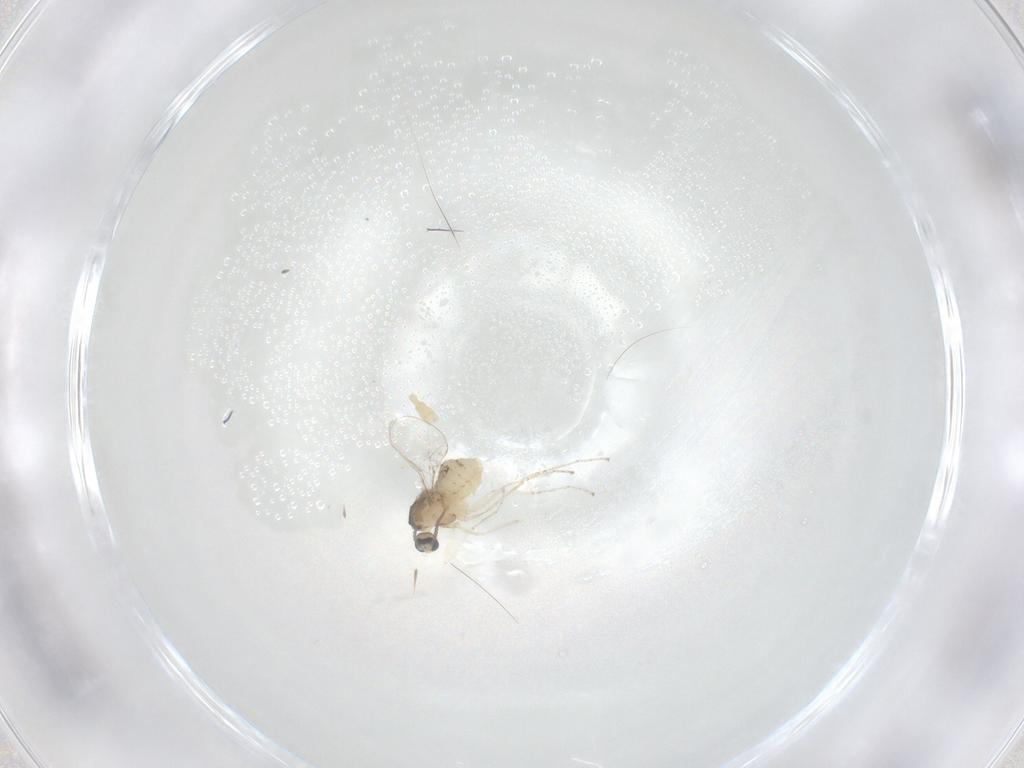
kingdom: Animalia
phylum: Arthropoda
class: Insecta
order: Diptera
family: Cecidomyiidae
